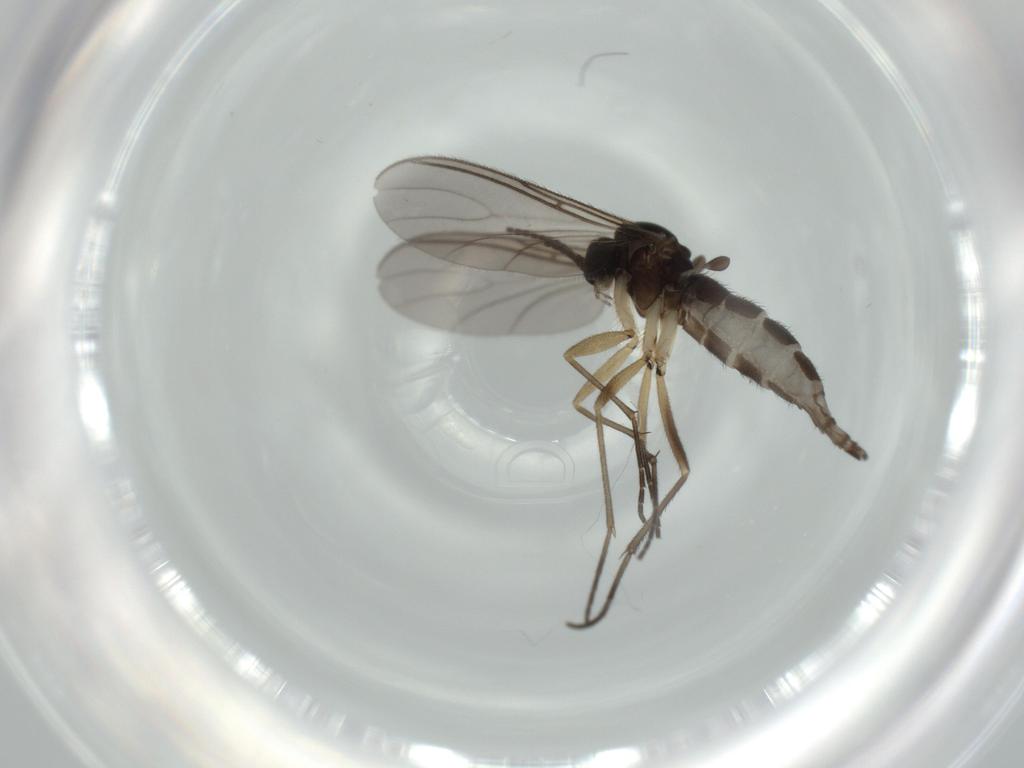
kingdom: Animalia
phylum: Arthropoda
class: Insecta
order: Diptera
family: Sciaridae
